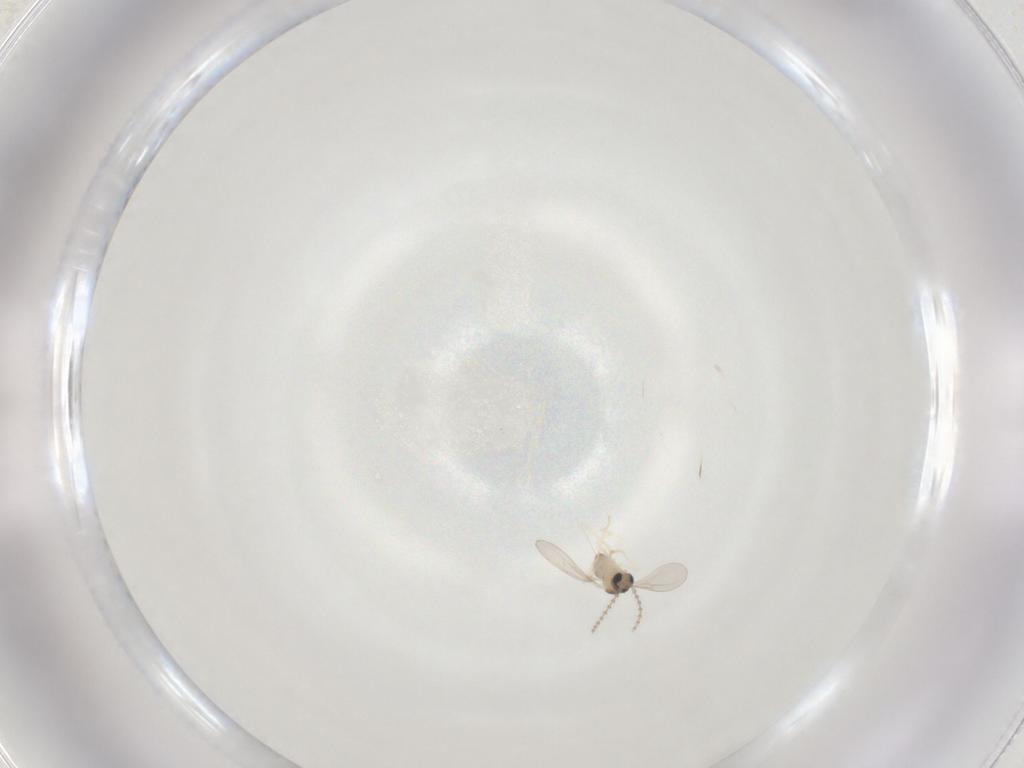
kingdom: Animalia
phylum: Arthropoda
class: Insecta
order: Diptera
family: Cecidomyiidae
